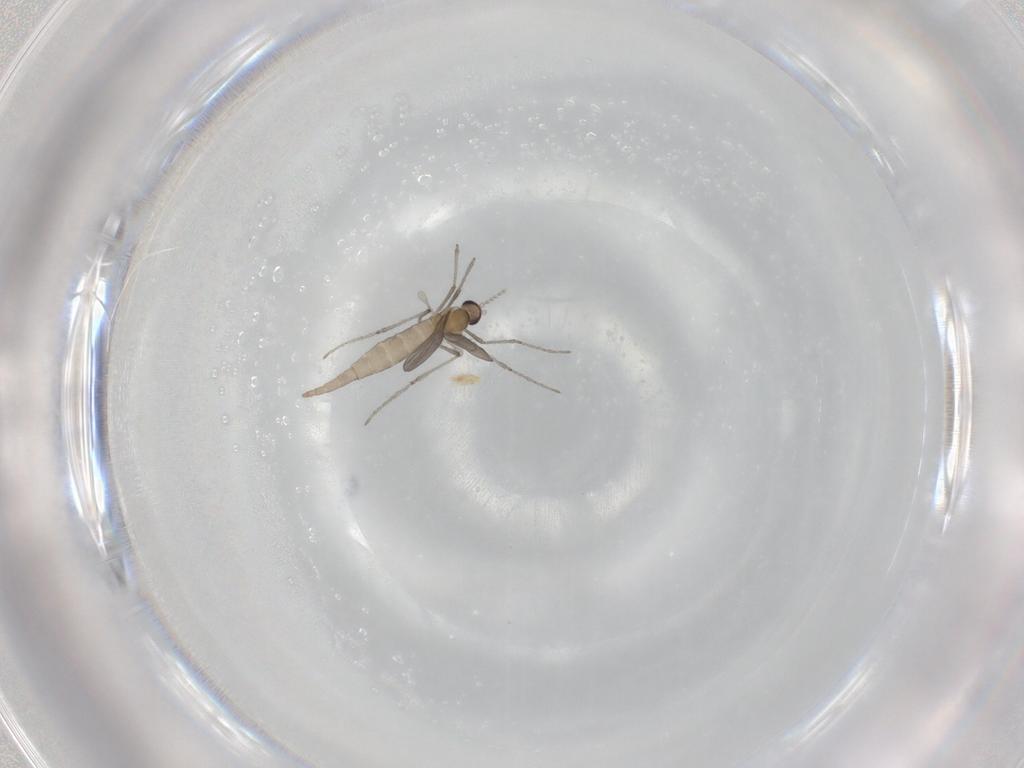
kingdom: Animalia
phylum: Arthropoda
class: Insecta
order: Diptera
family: Cecidomyiidae
